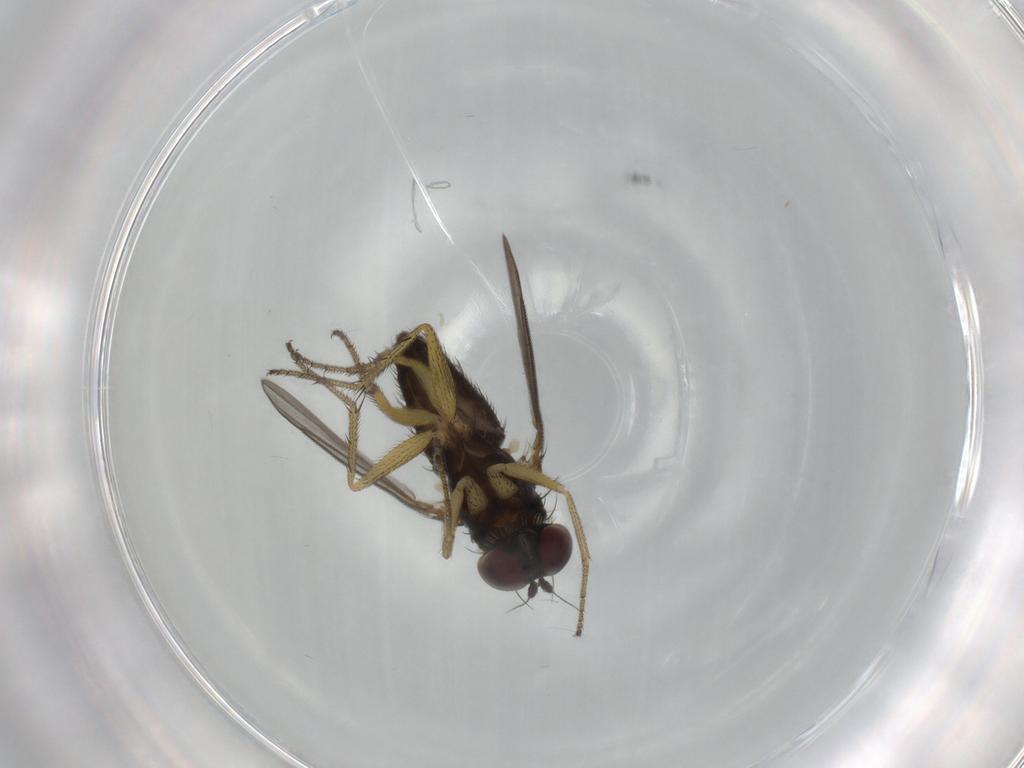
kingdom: Animalia
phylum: Arthropoda
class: Insecta
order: Diptera
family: Dolichopodidae
